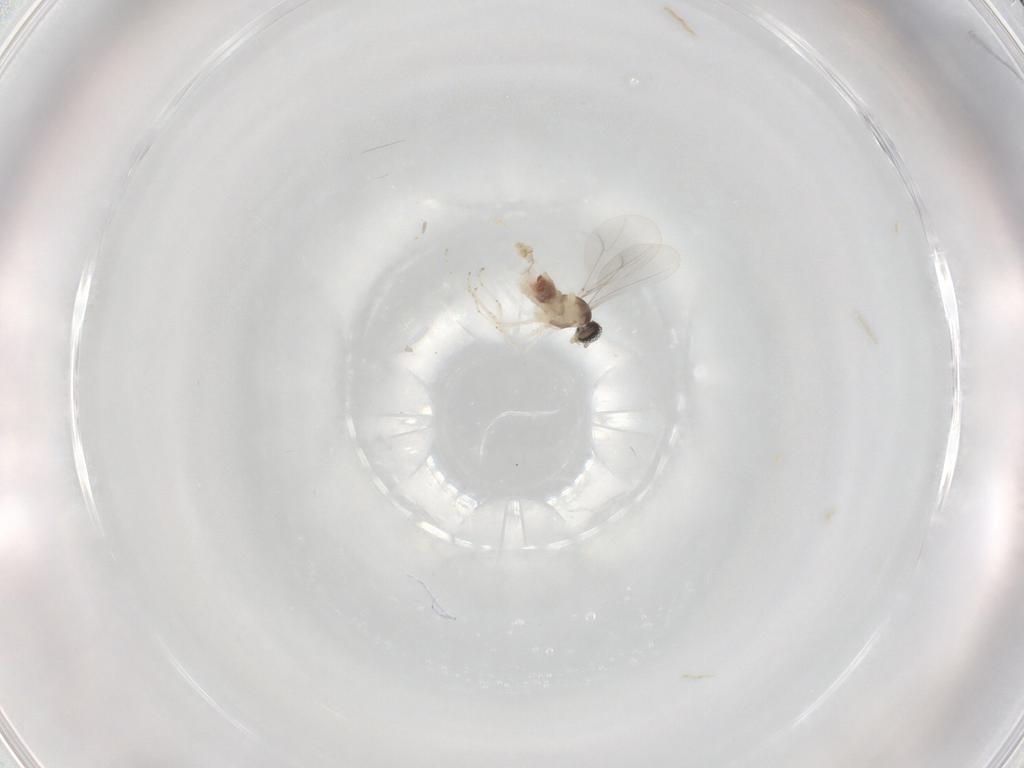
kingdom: Animalia
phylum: Arthropoda
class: Insecta
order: Diptera
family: Cecidomyiidae
